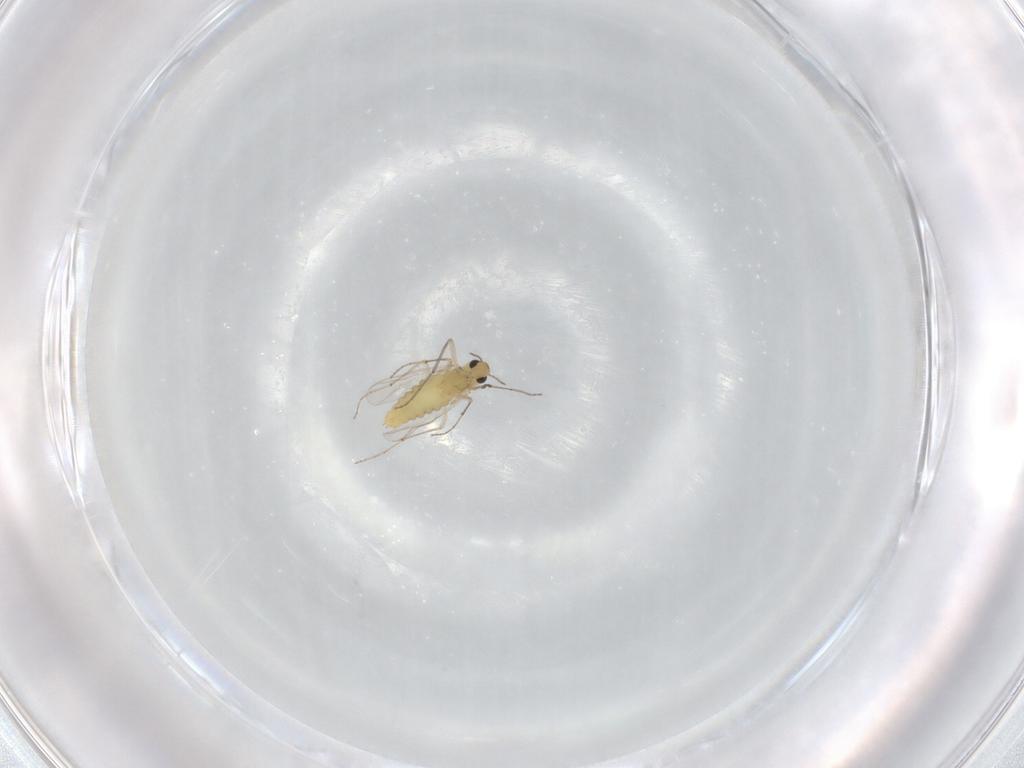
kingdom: Animalia
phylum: Arthropoda
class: Insecta
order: Diptera
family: Chironomidae
